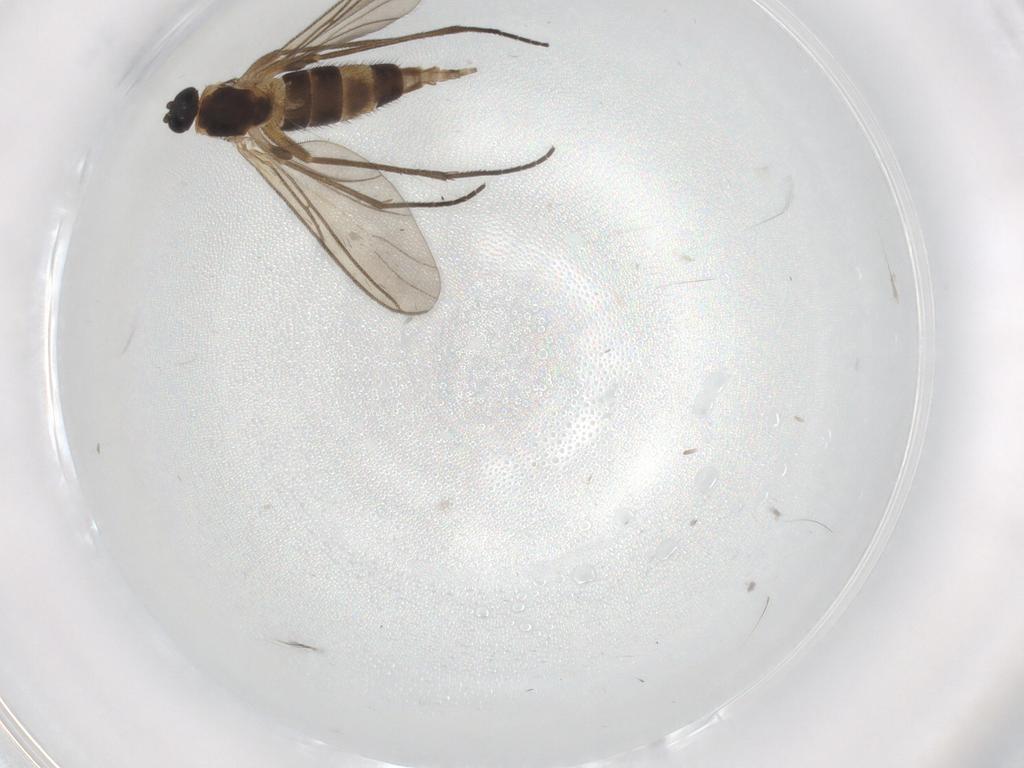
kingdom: Animalia
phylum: Arthropoda
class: Insecta
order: Diptera
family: Sciaridae
